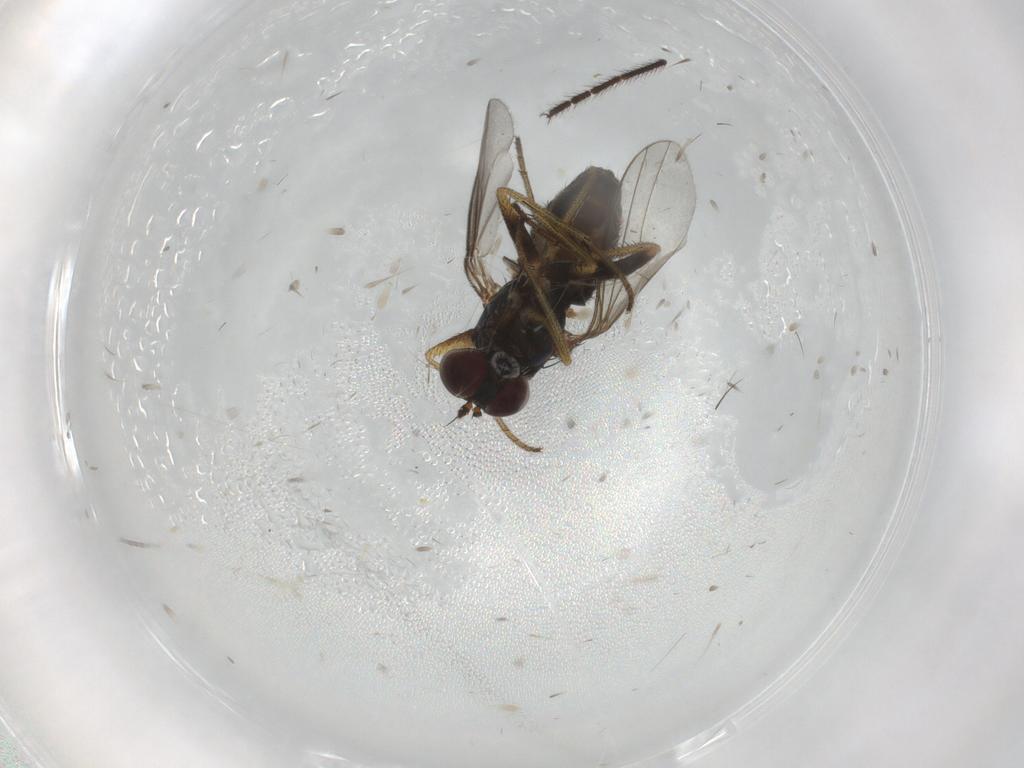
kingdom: Animalia
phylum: Arthropoda
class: Insecta
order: Diptera
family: Dolichopodidae
